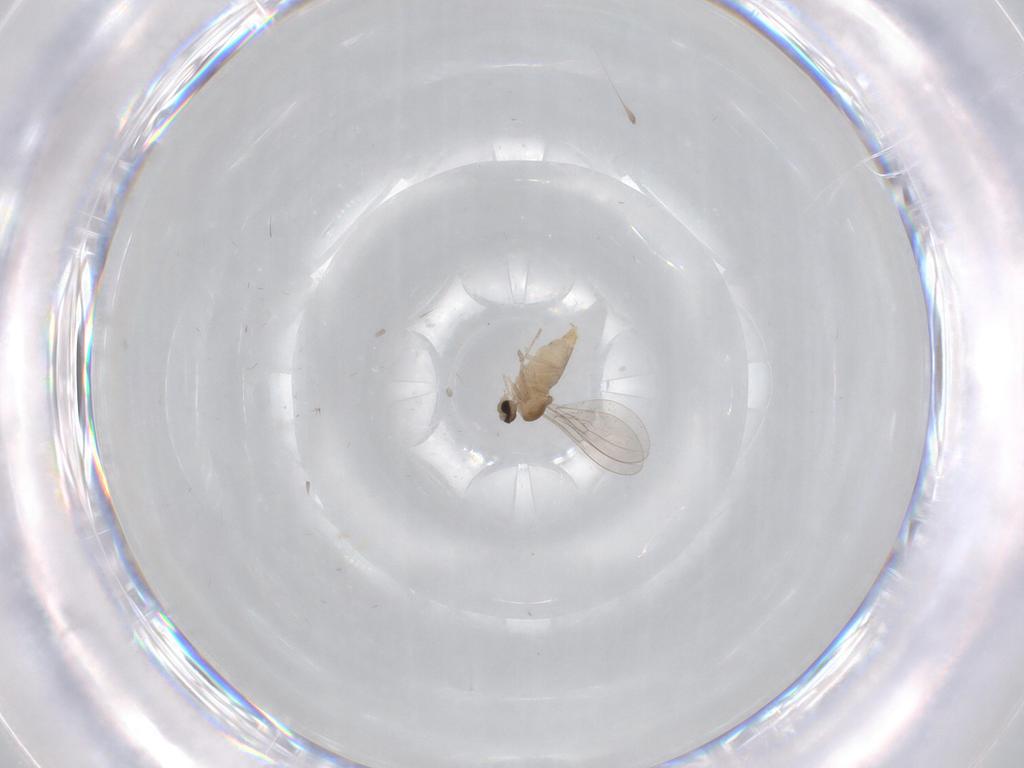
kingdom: Animalia
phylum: Arthropoda
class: Insecta
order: Diptera
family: Cecidomyiidae
